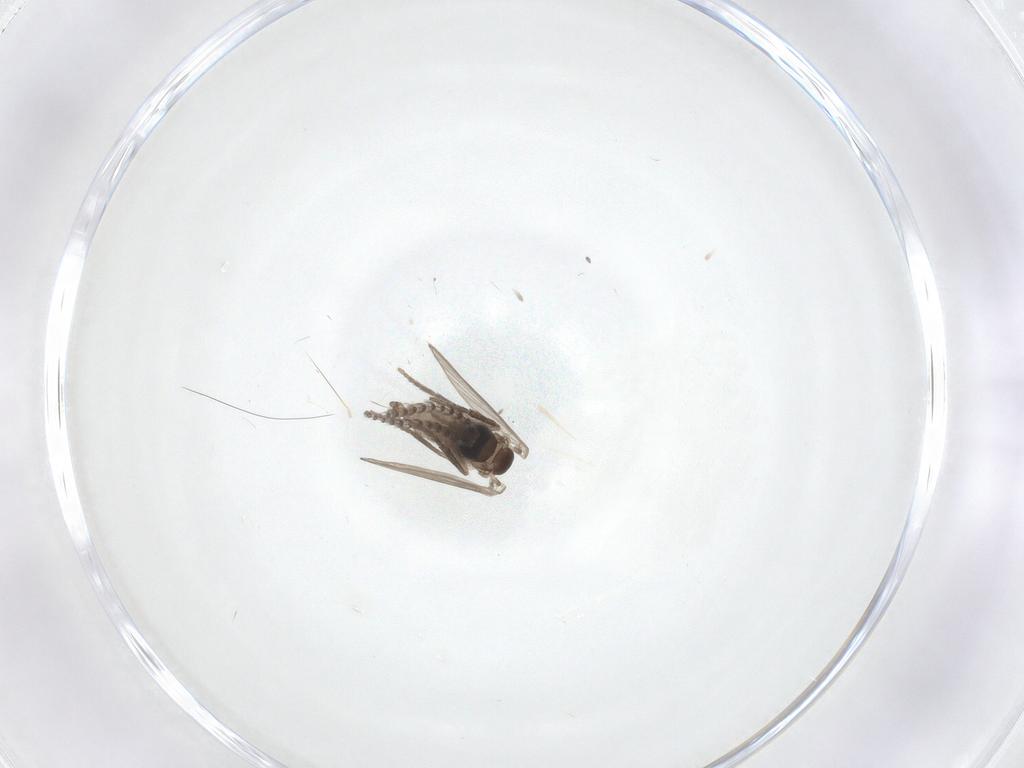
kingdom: Animalia
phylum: Arthropoda
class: Insecta
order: Diptera
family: Psychodidae
